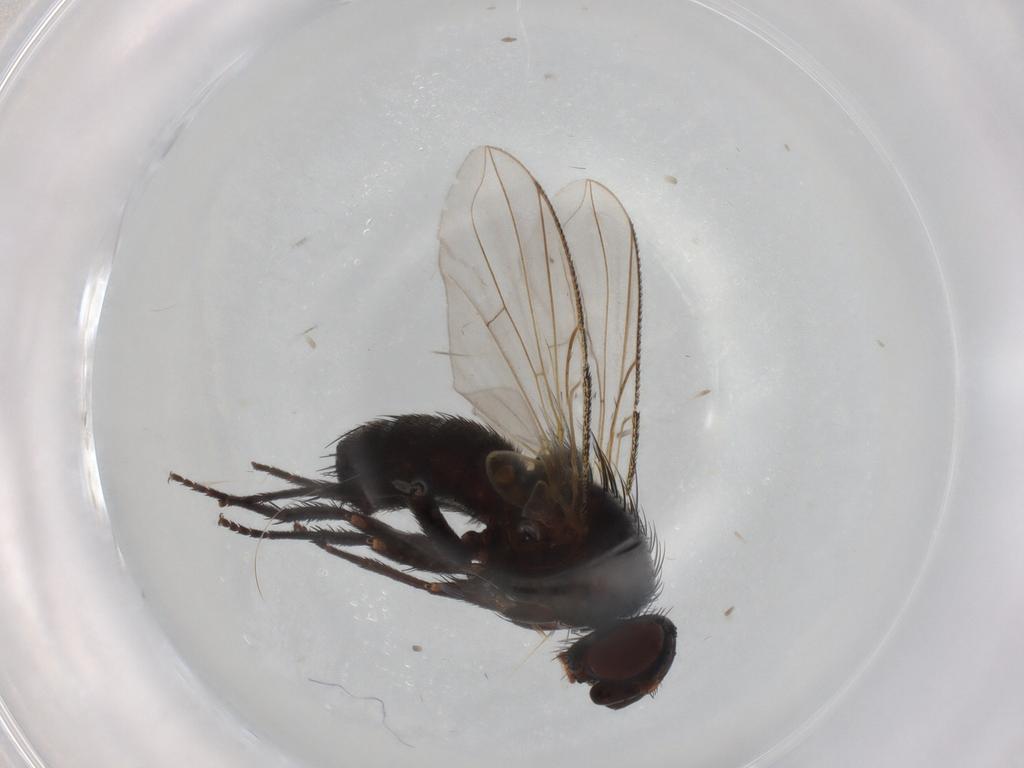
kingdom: Animalia
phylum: Arthropoda
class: Insecta
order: Diptera
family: Tachinidae
